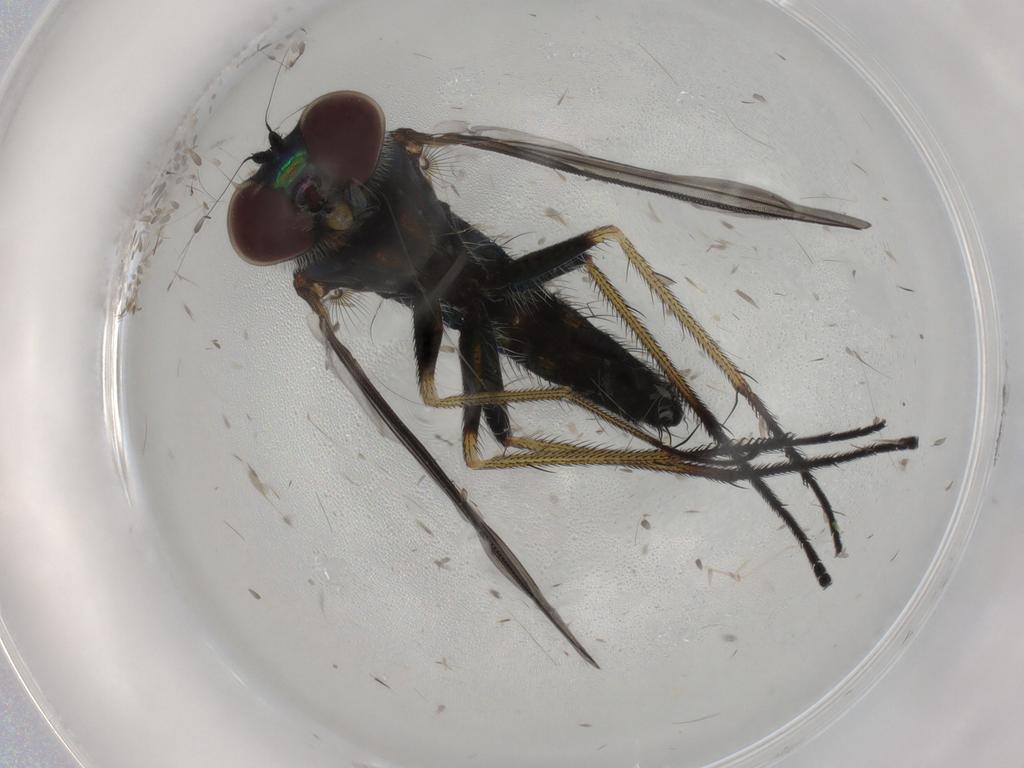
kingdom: Animalia
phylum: Arthropoda
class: Insecta
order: Diptera
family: Dolichopodidae
